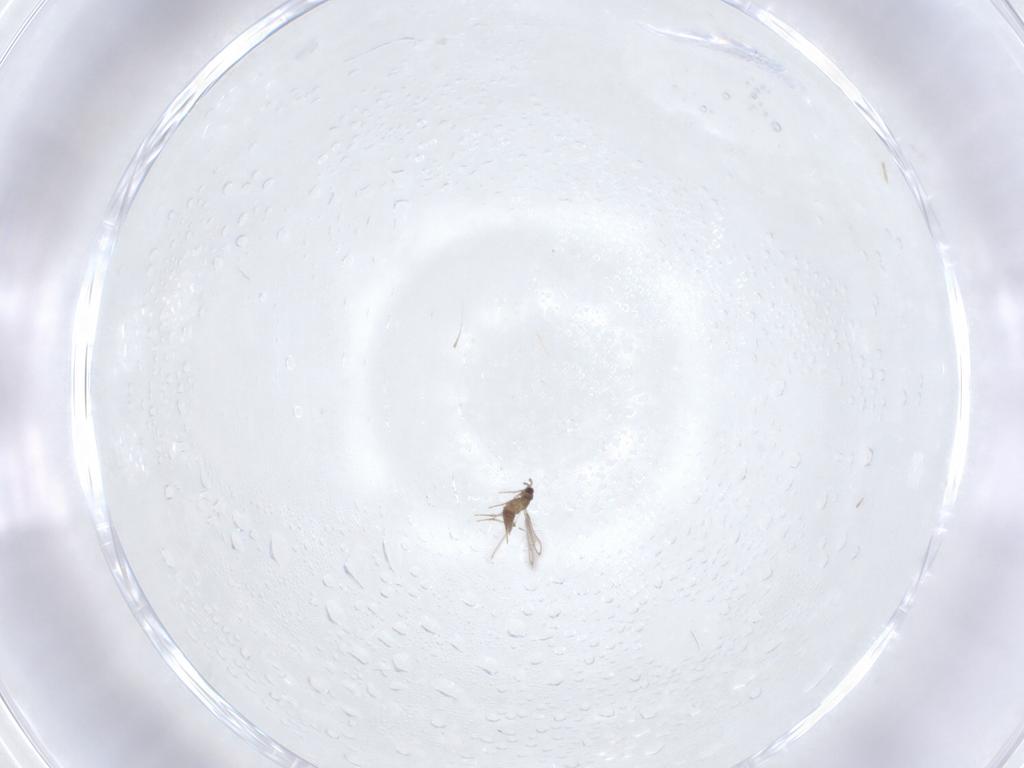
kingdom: Animalia
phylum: Arthropoda
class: Insecta
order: Hymenoptera
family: Mymaridae
